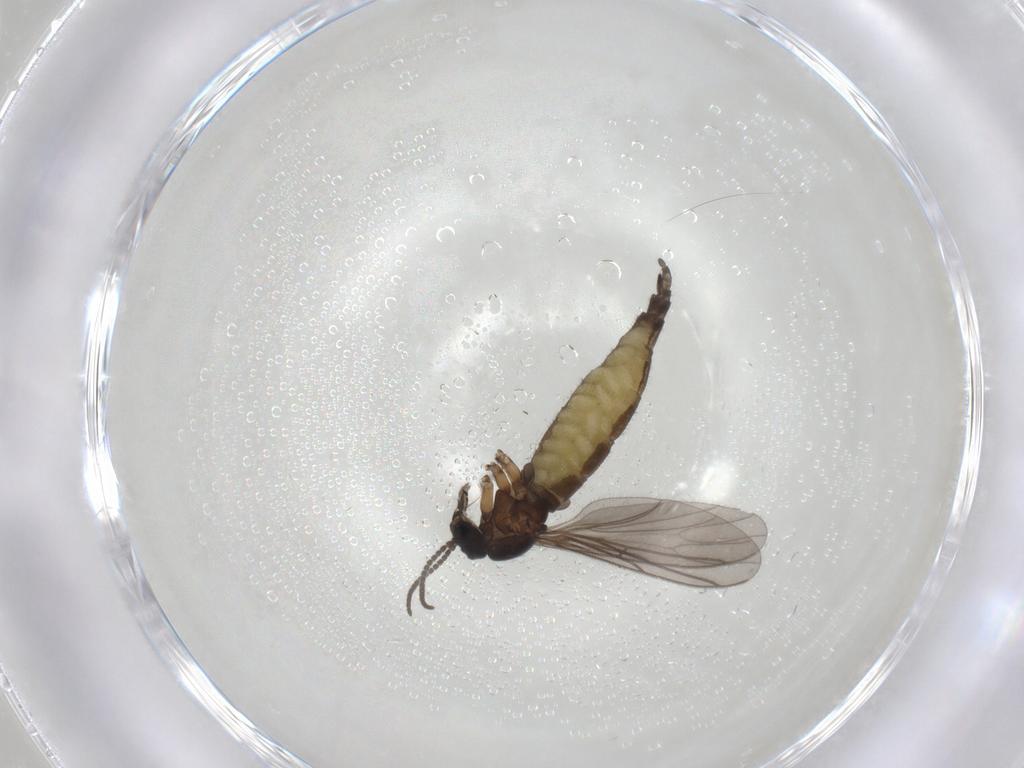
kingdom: Animalia
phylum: Arthropoda
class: Insecta
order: Diptera
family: Sciaridae
